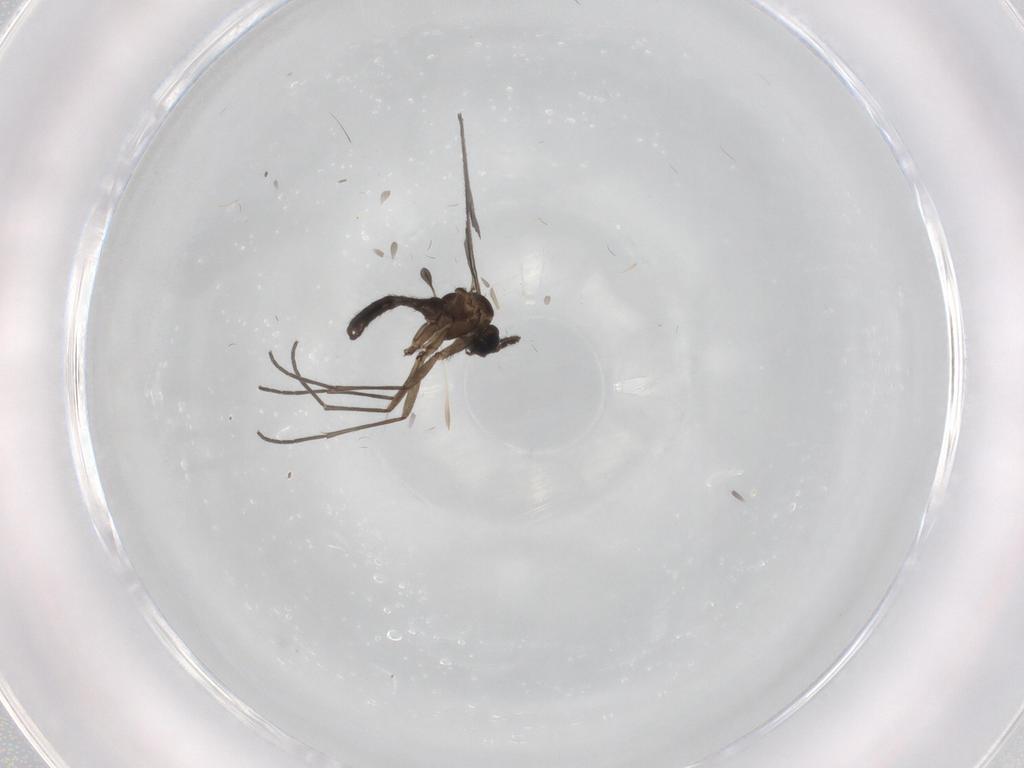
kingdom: Animalia
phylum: Arthropoda
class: Insecta
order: Diptera
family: Sciaridae
